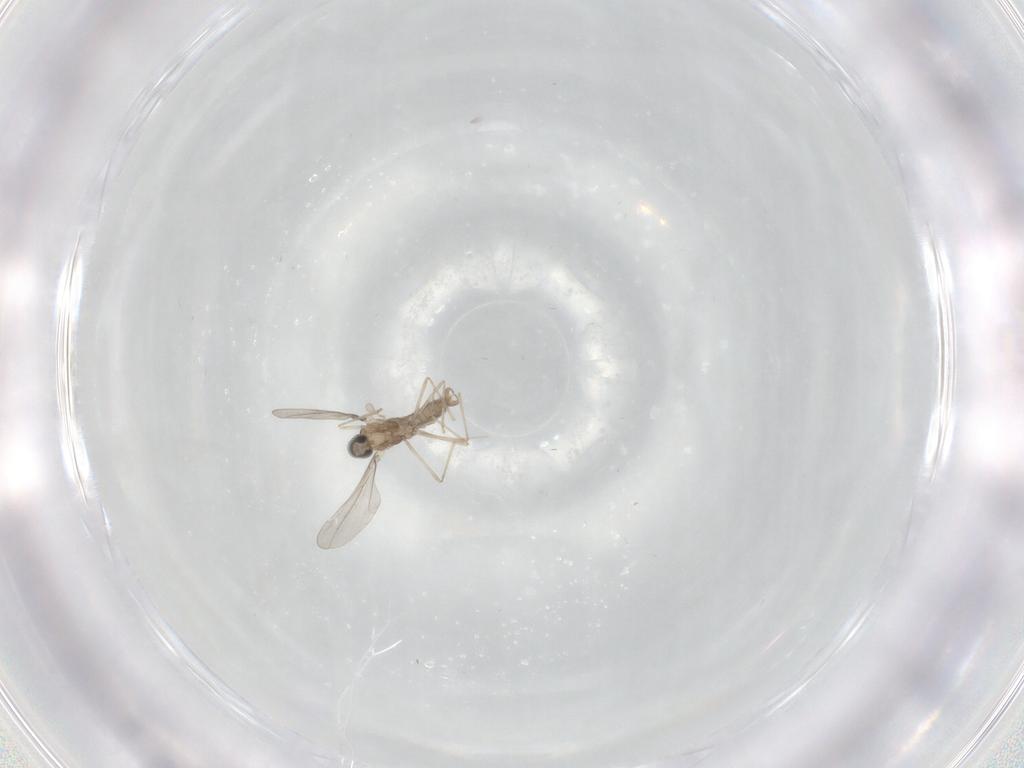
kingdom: Animalia
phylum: Arthropoda
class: Insecta
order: Diptera
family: Cecidomyiidae
